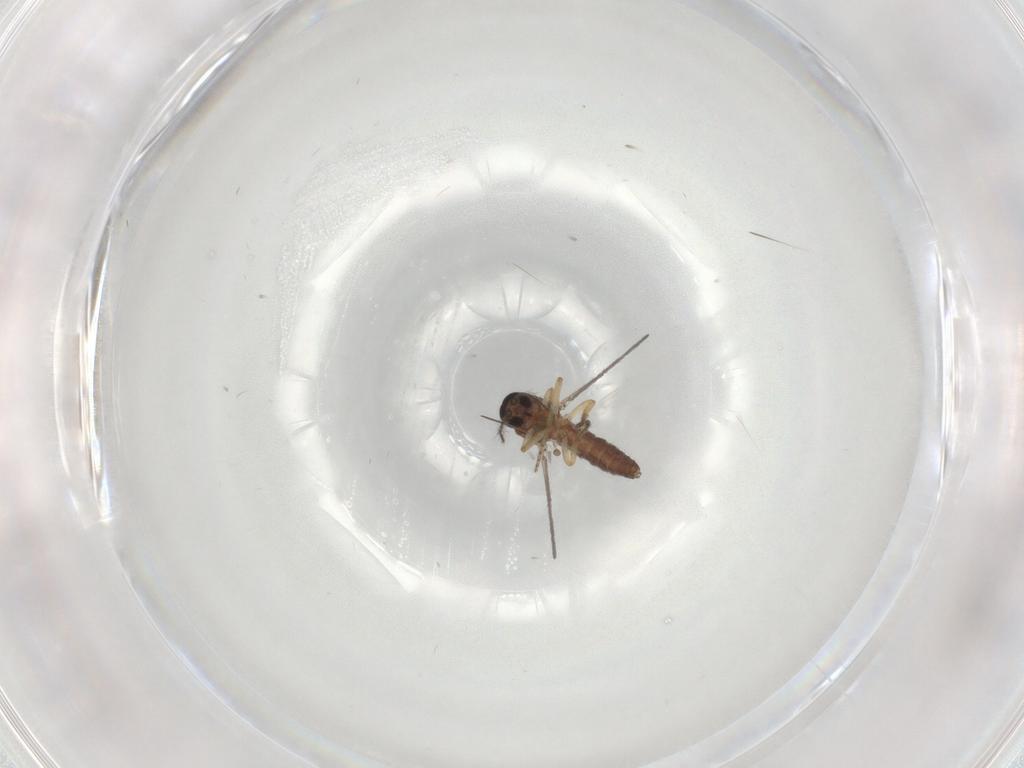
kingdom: Animalia
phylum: Arthropoda
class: Insecta
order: Diptera
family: Ceratopogonidae
